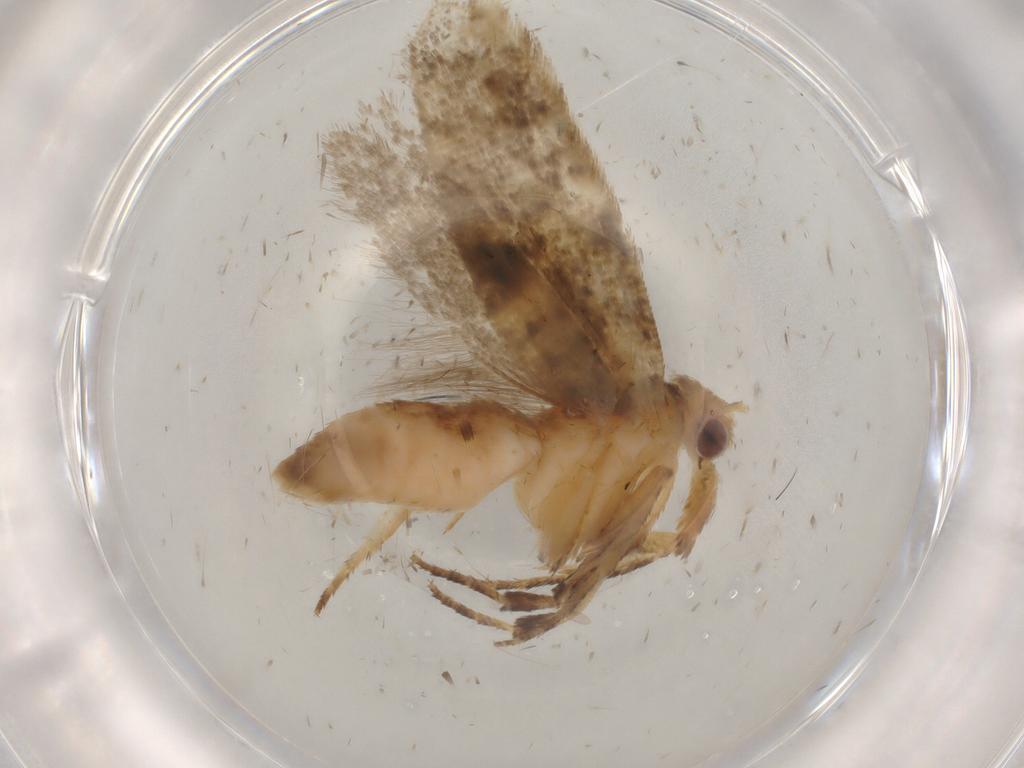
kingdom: Animalia
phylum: Arthropoda
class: Insecta
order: Lepidoptera
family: Ypsolophidae
